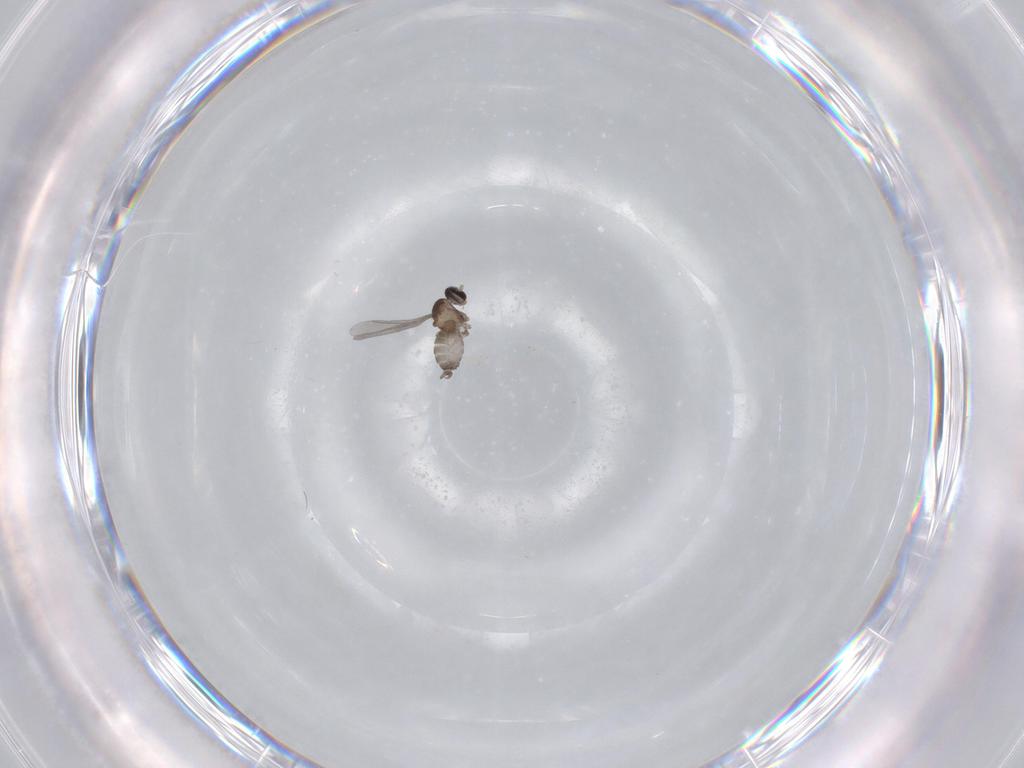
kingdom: Animalia
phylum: Arthropoda
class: Insecta
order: Diptera
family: Cecidomyiidae
